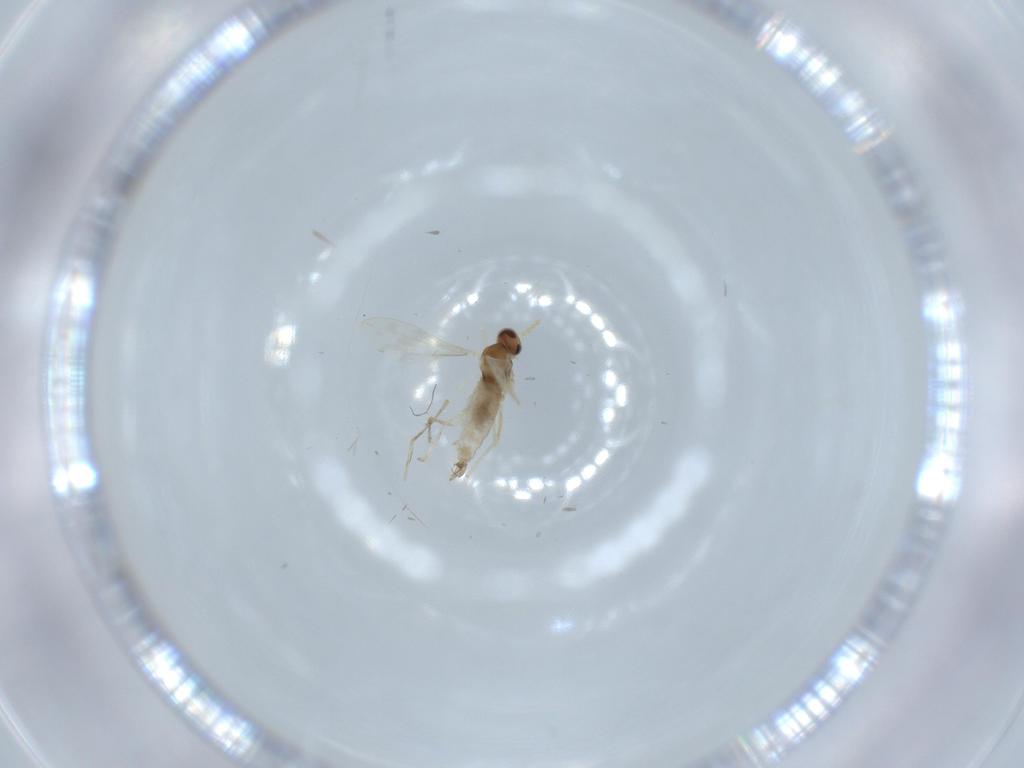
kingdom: Animalia
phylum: Arthropoda
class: Insecta
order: Diptera
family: Cecidomyiidae
